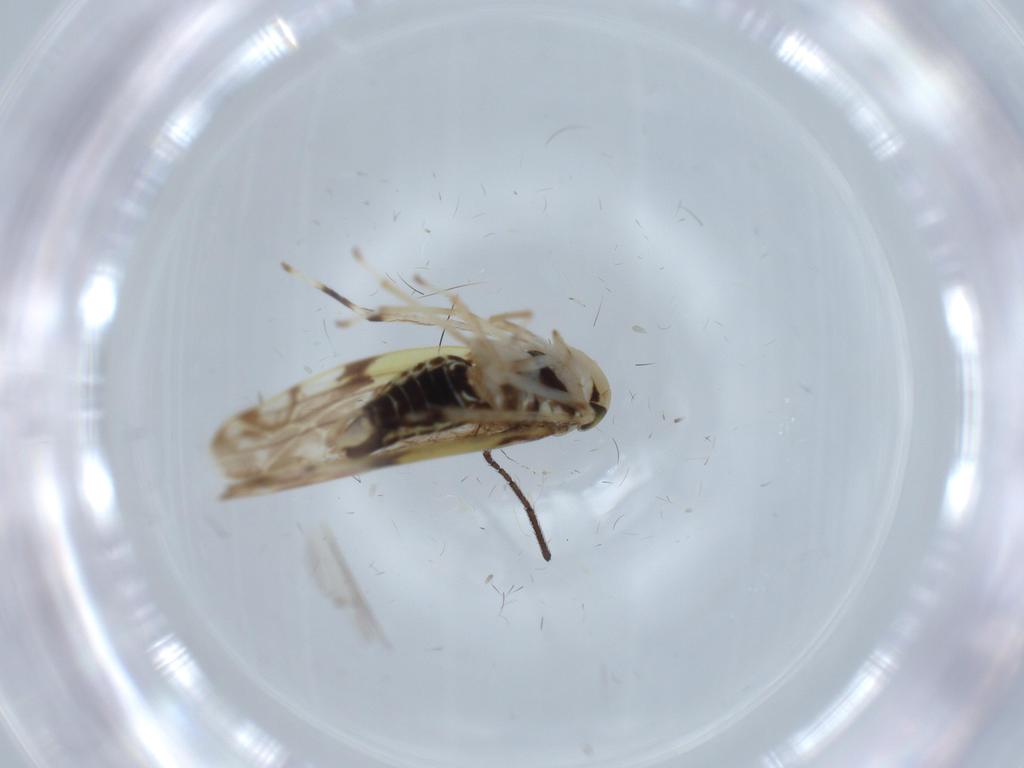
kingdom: Animalia
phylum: Arthropoda
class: Insecta
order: Hemiptera
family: Cicadellidae
